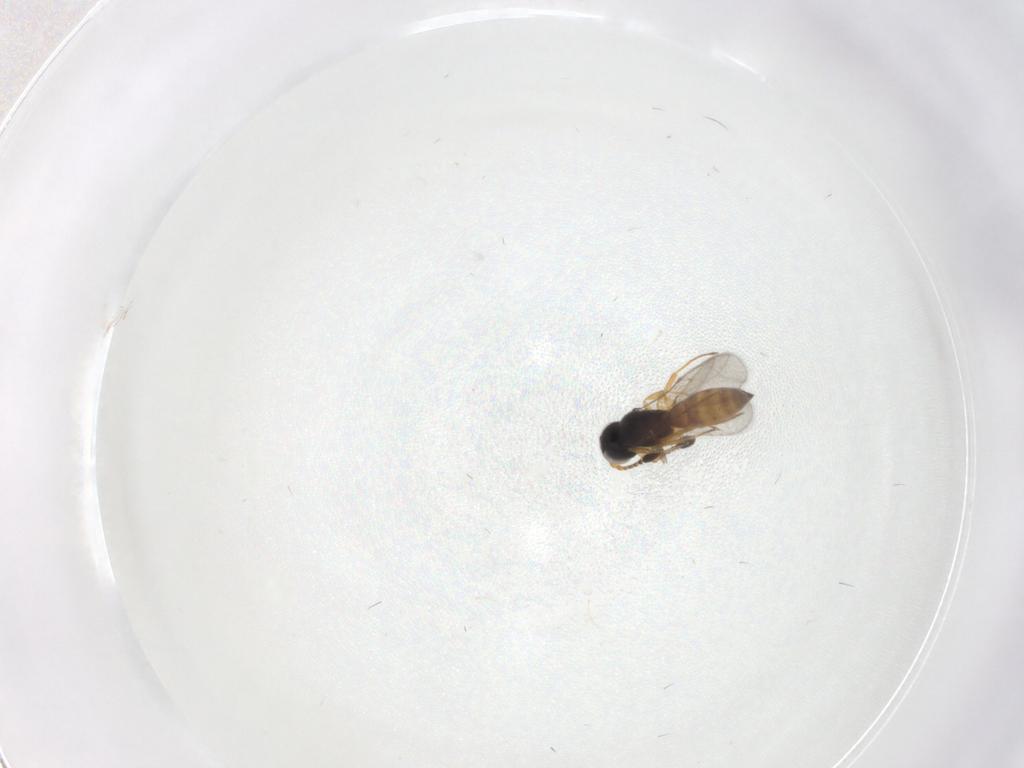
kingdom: Animalia
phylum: Arthropoda
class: Insecta
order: Hymenoptera
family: Scelionidae
